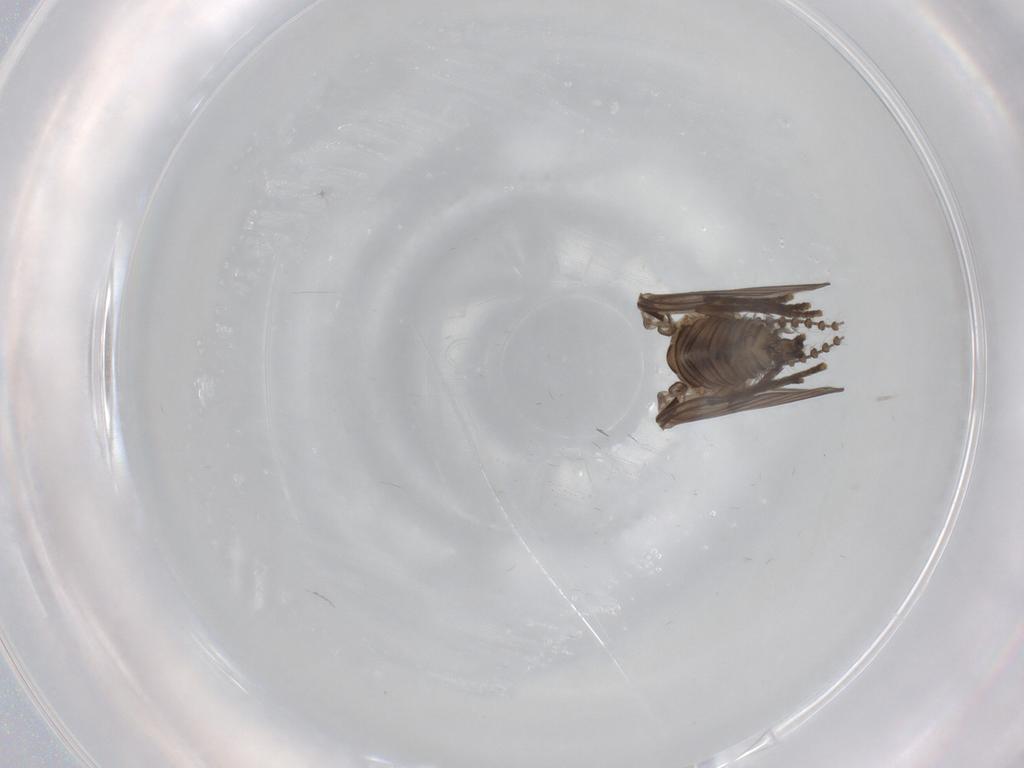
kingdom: Animalia
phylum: Arthropoda
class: Insecta
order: Diptera
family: Psychodidae
